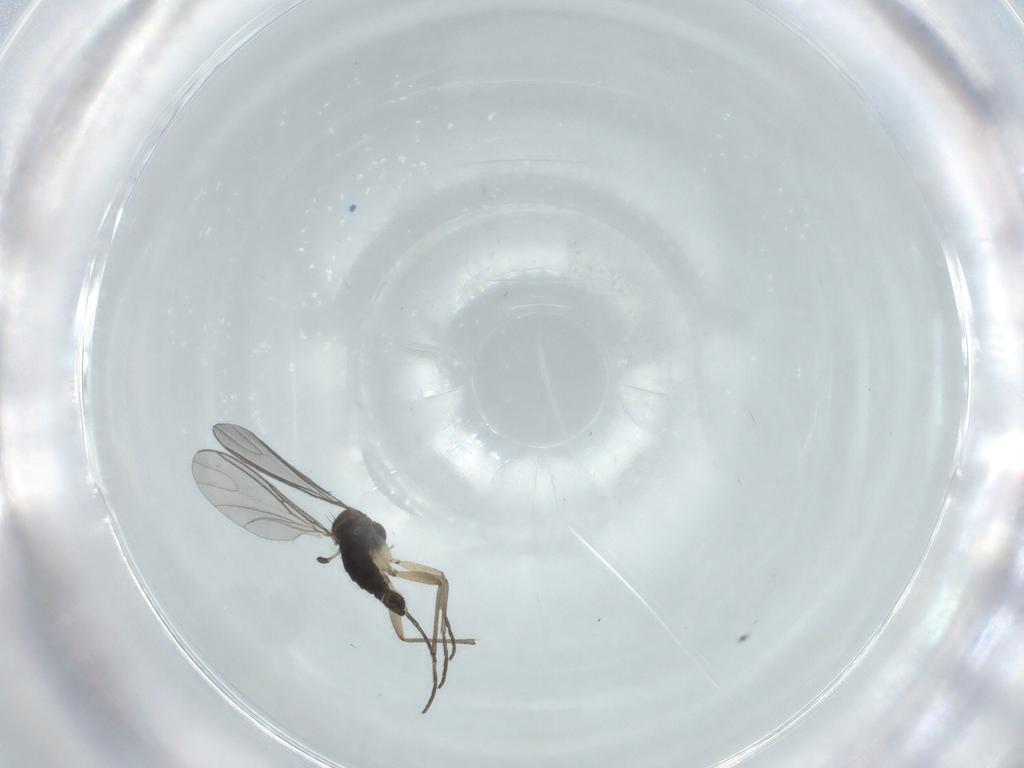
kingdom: Animalia
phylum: Arthropoda
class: Insecta
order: Diptera
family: Sciaridae
